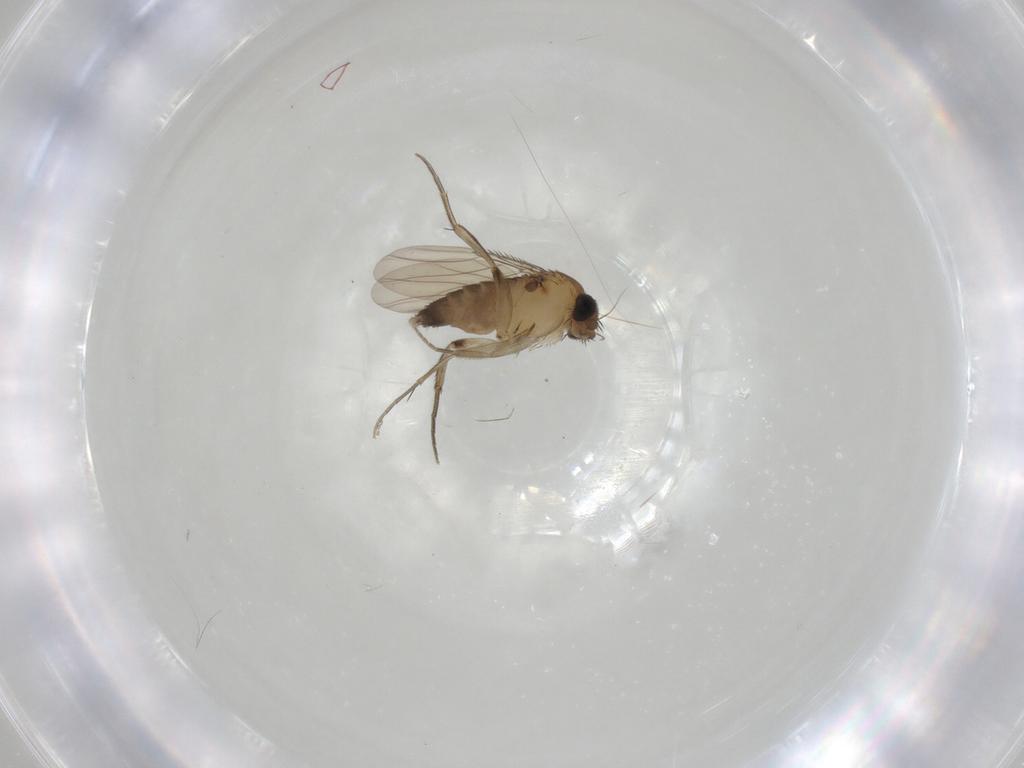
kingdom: Animalia
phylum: Arthropoda
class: Insecta
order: Diptera
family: Phoridae
